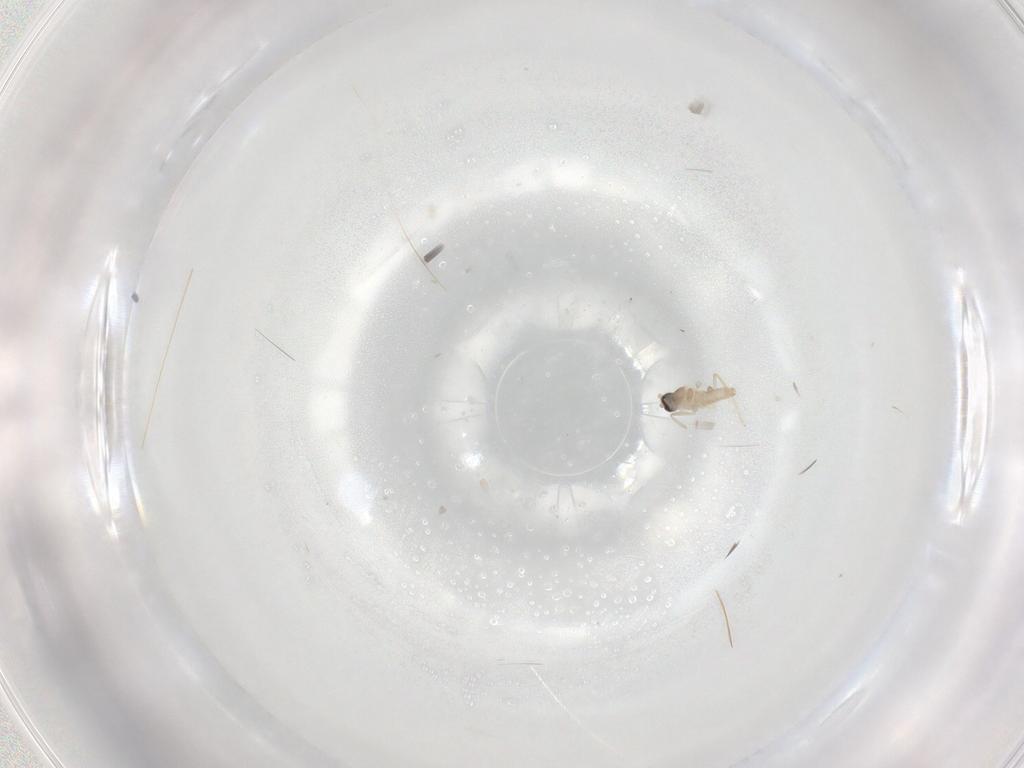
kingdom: Animalia
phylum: Arthropoda
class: Insecta
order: Diptera
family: Cecidomyiidae
